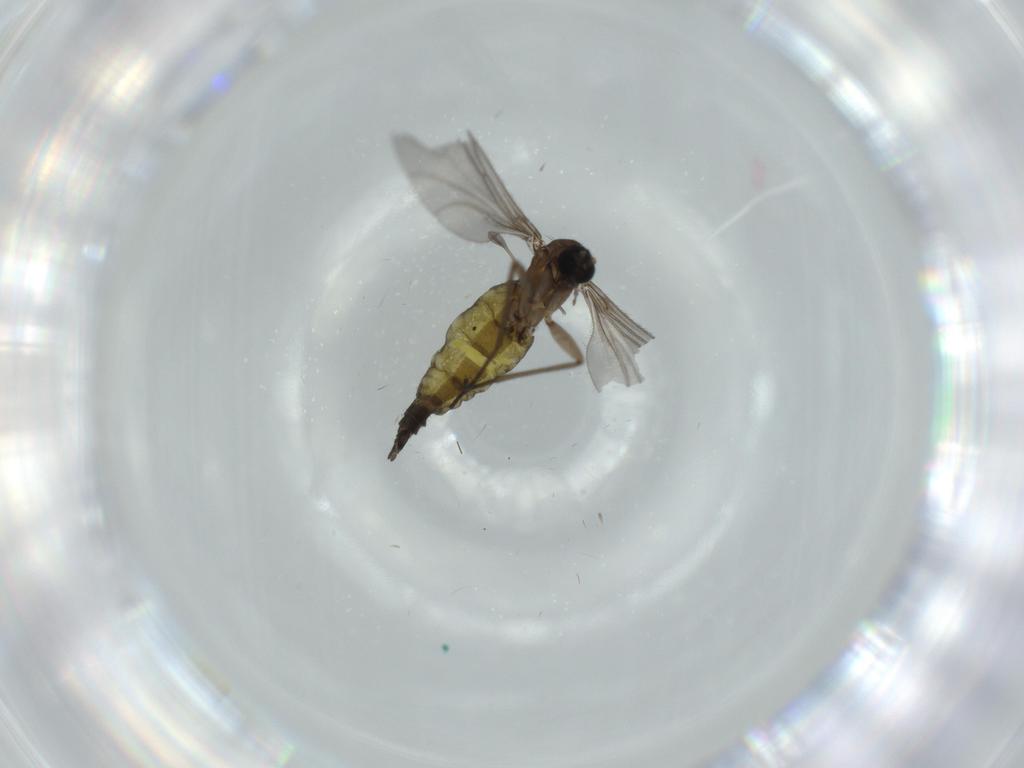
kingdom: Animalia
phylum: Arthropoda
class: Insecta
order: Diptera
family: Sciaridae
